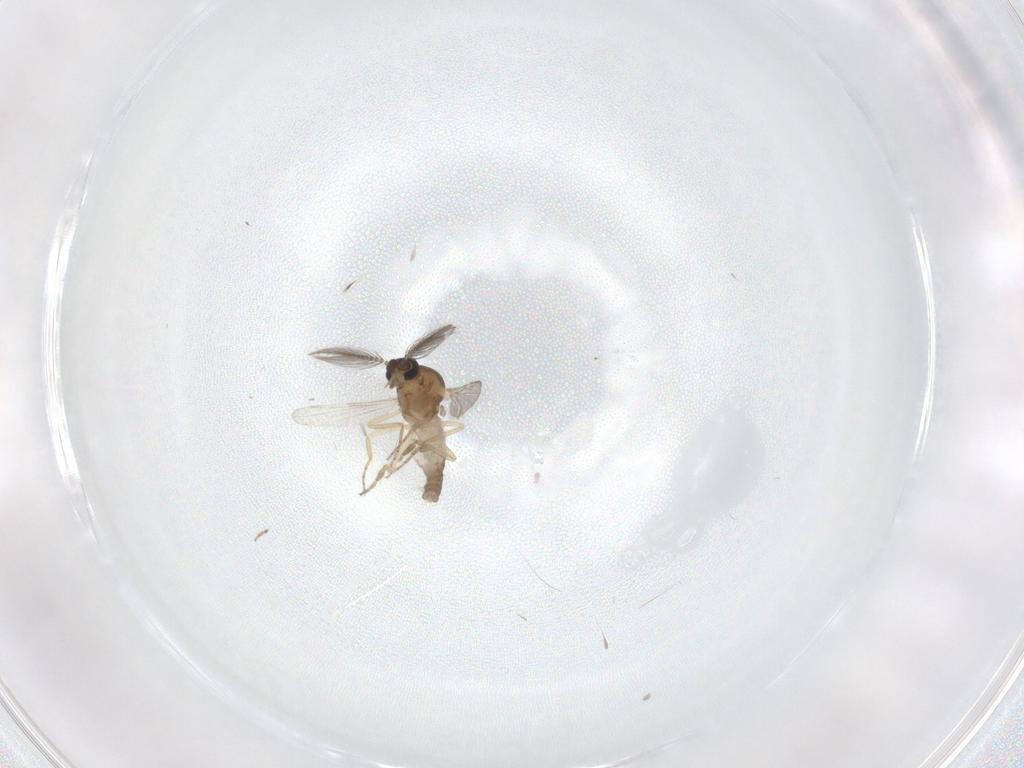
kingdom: Animalia
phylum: Arthropoda
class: Insecta
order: Diptera
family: Ceratopogonidae
